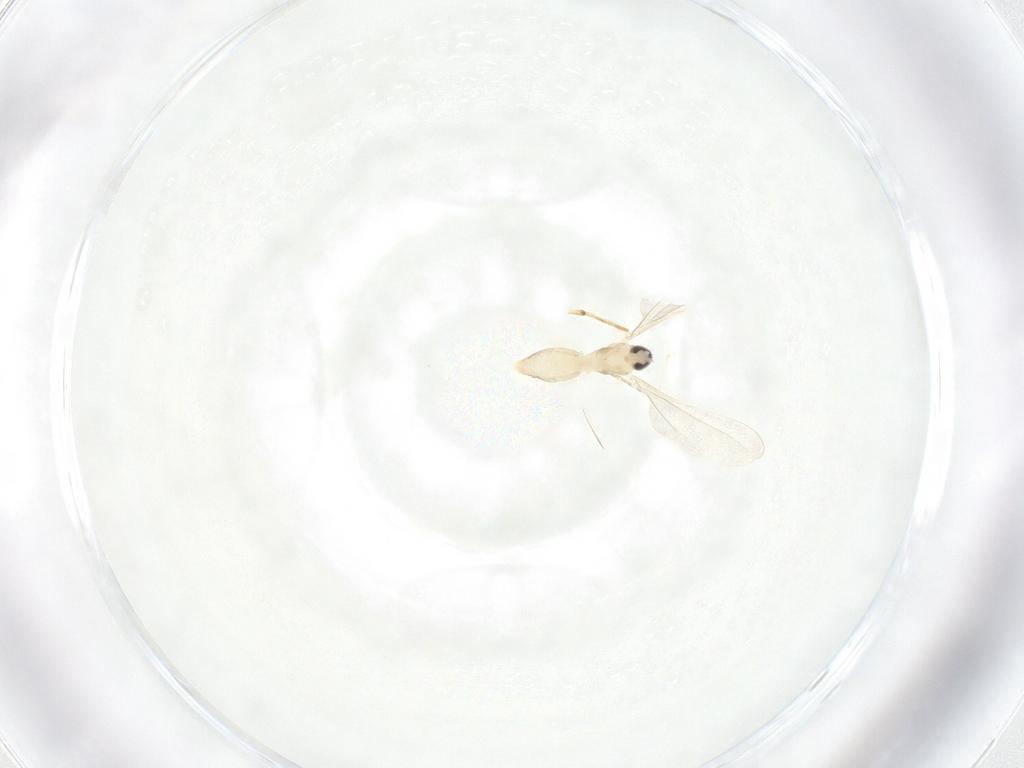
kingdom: Animalia
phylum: Arthropoda
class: Insecta
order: Diptera
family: Cecidomyiidae
